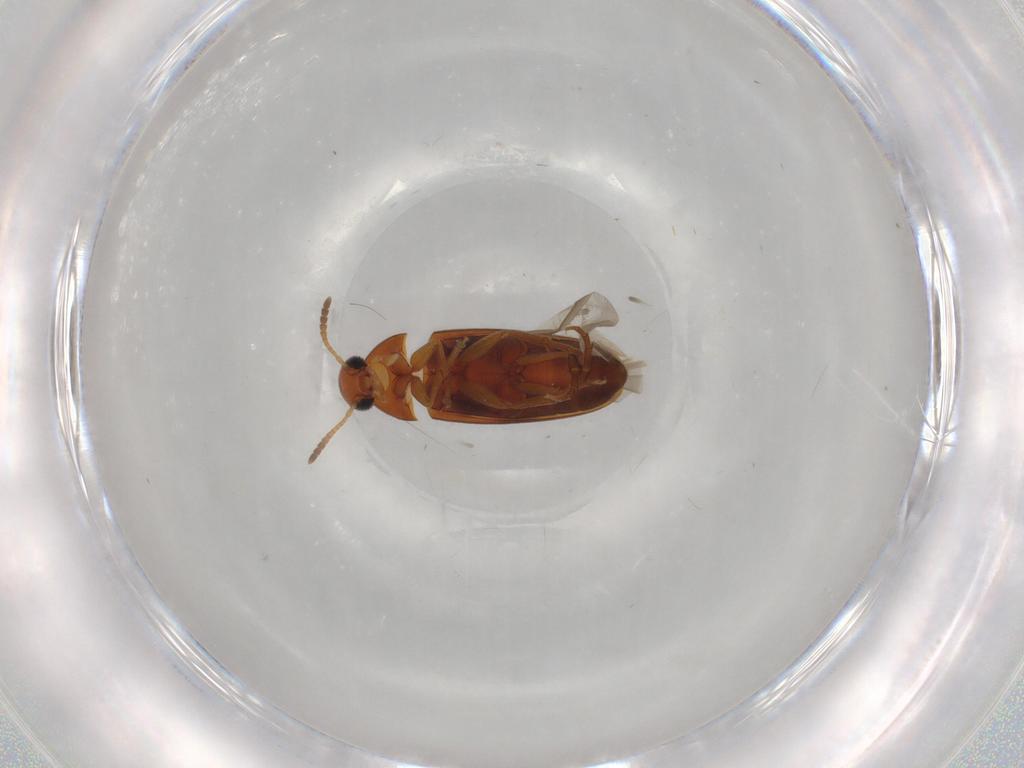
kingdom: Animalia
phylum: Arthropoda
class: Insecta
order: Coleoptera
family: Scraptiidae
